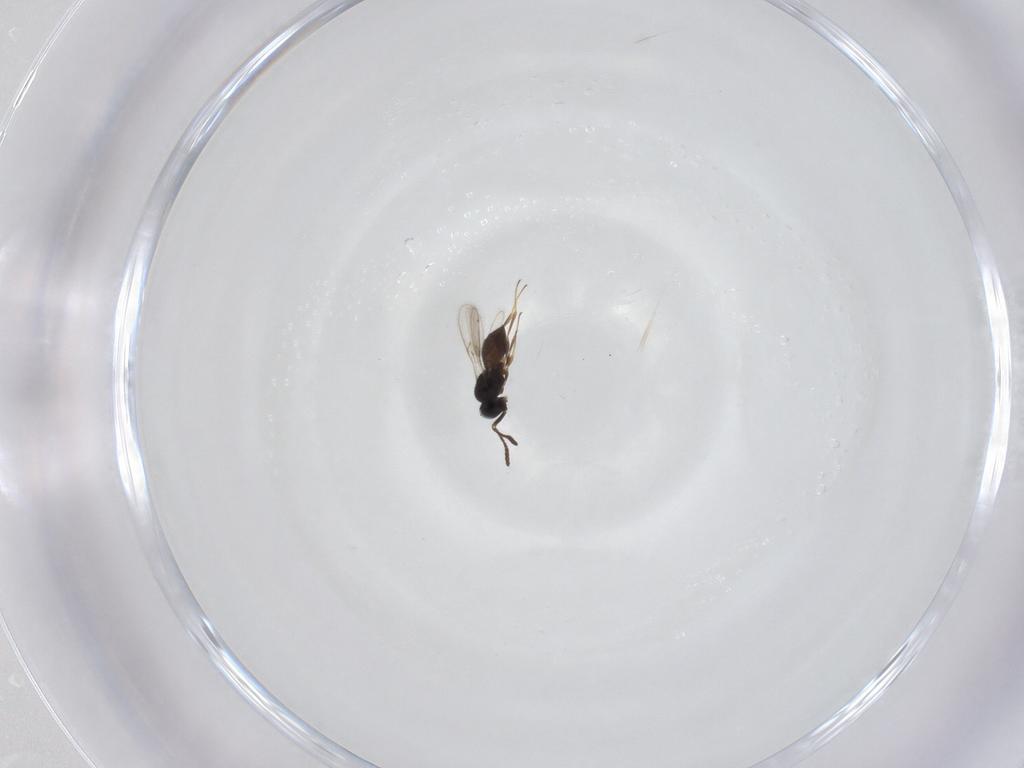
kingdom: Animalia
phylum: Arthropoda
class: Insecta
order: Hymenoptera
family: Scelionidae
